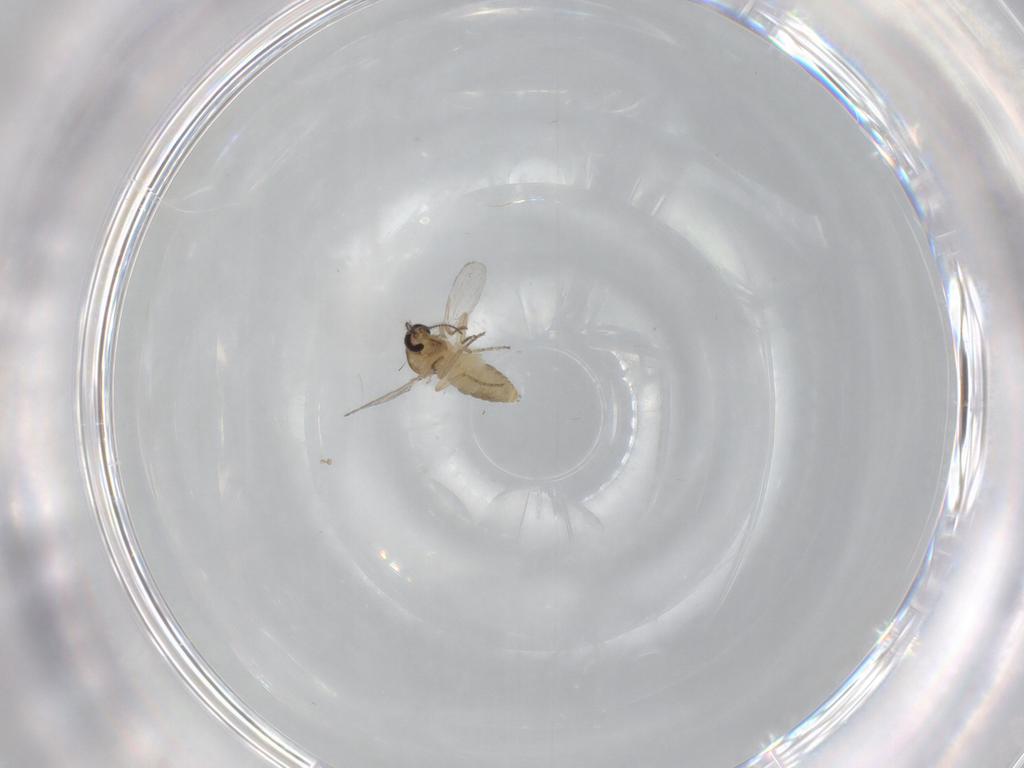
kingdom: Animalia
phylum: Arthropoda
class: Insecta
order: Diptera
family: Ceratopogonidae
